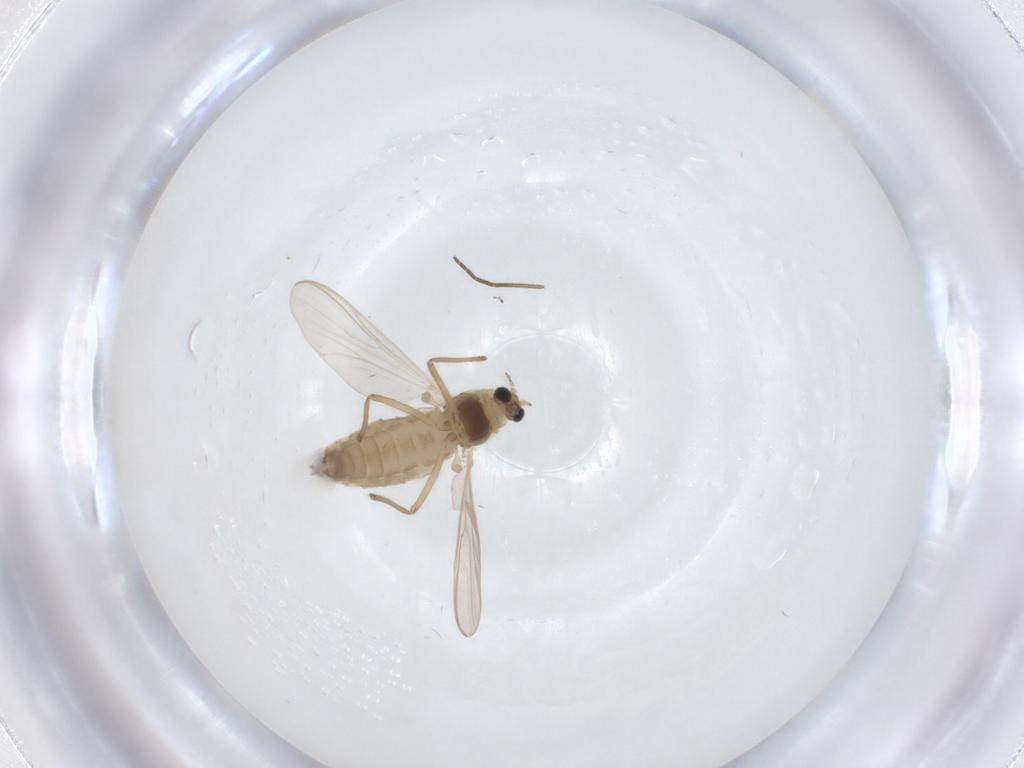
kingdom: Animalia
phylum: Arthropoda
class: Insecta
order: Diptera
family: Chironomidae
